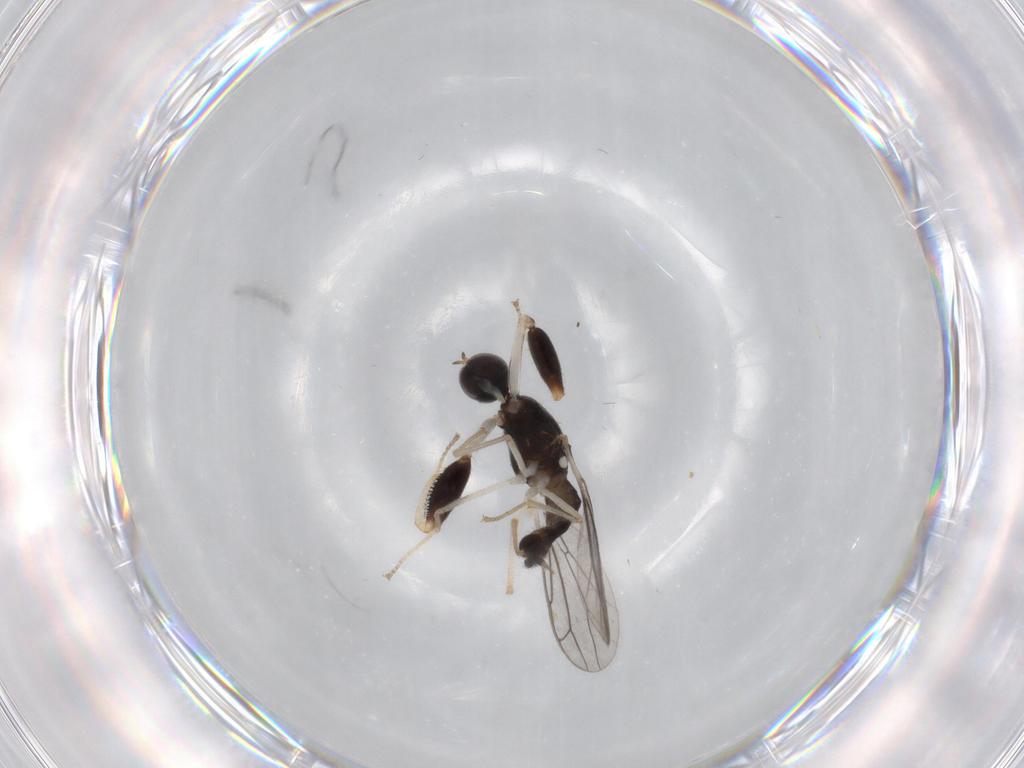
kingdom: Animalia
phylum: Arthropoda
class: Insecta
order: Diptera
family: Empididae
